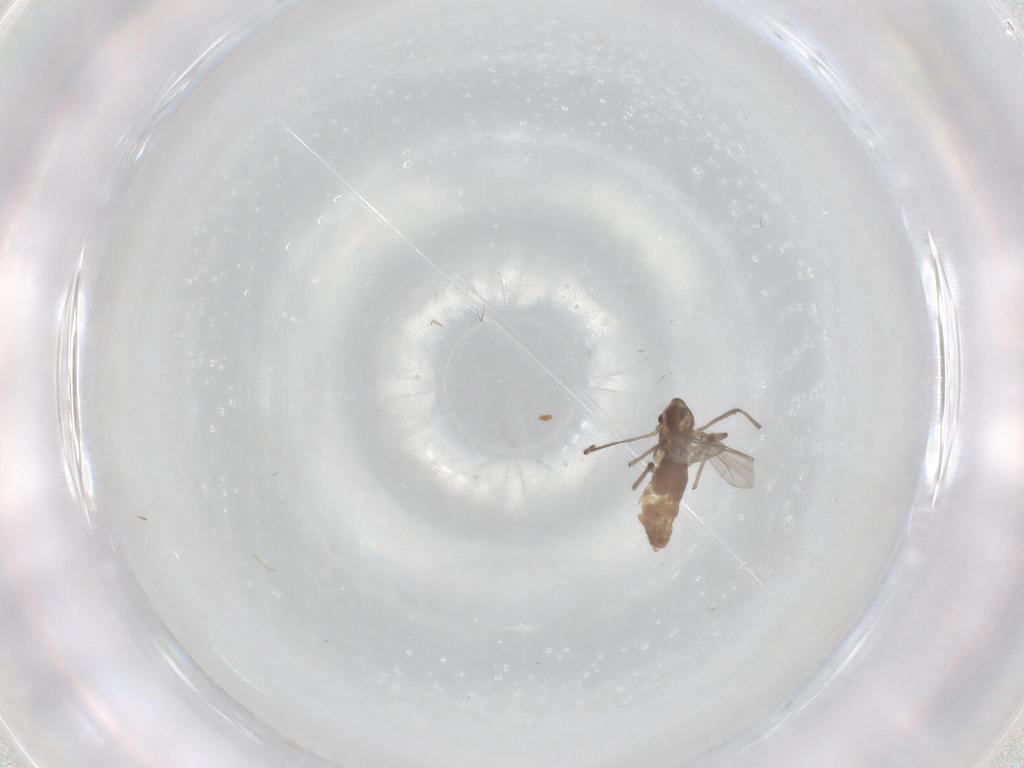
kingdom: Animalia
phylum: Arthropoda
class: Insecta
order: Diptera
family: Chironomidae
